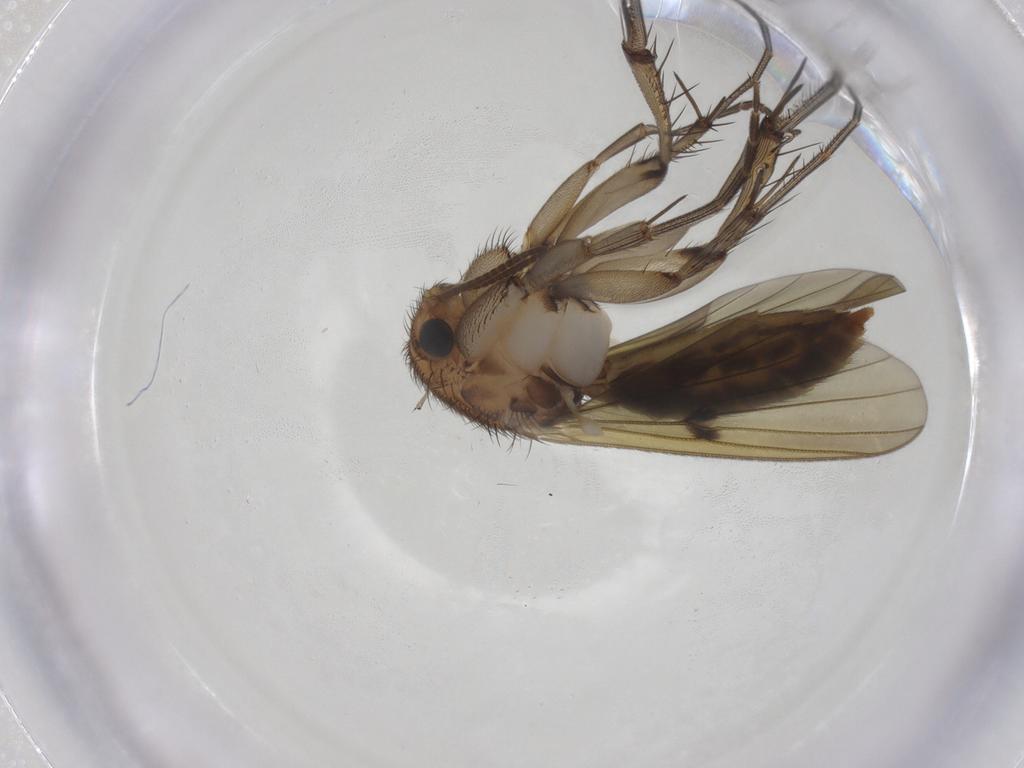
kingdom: Animalia
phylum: Arthropoda
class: Insecta
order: Diptera
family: Mycetophilidae
